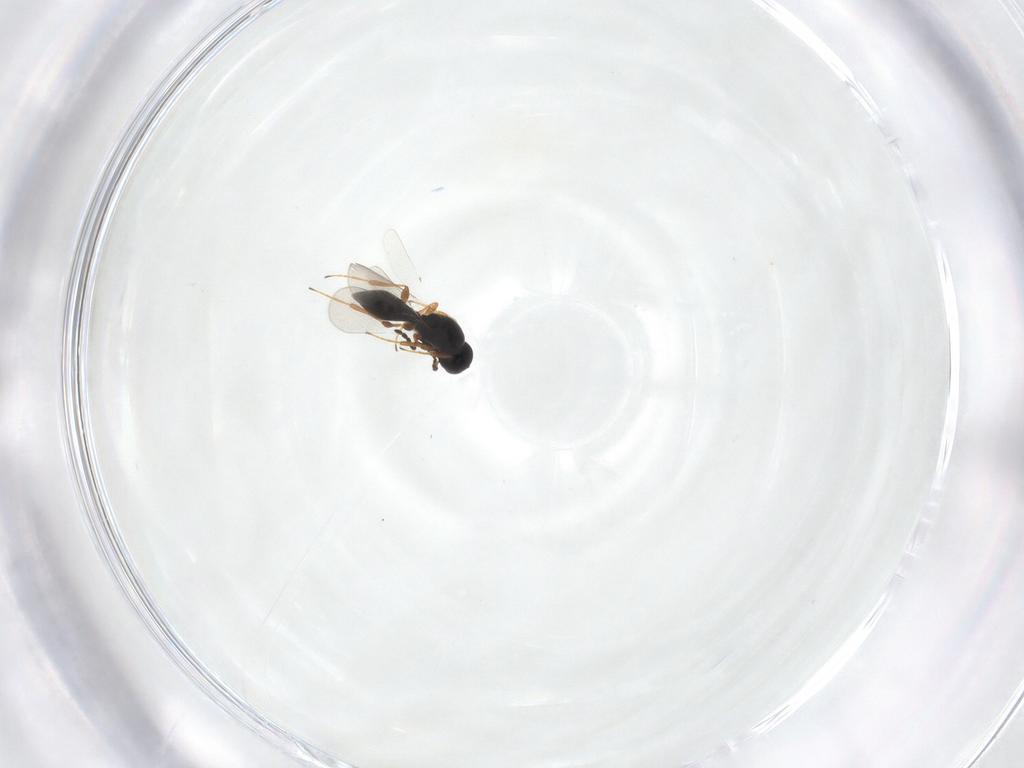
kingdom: Animalia
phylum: Arthropoda
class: Insecta
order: Hymenoptera
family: Platygastridae
